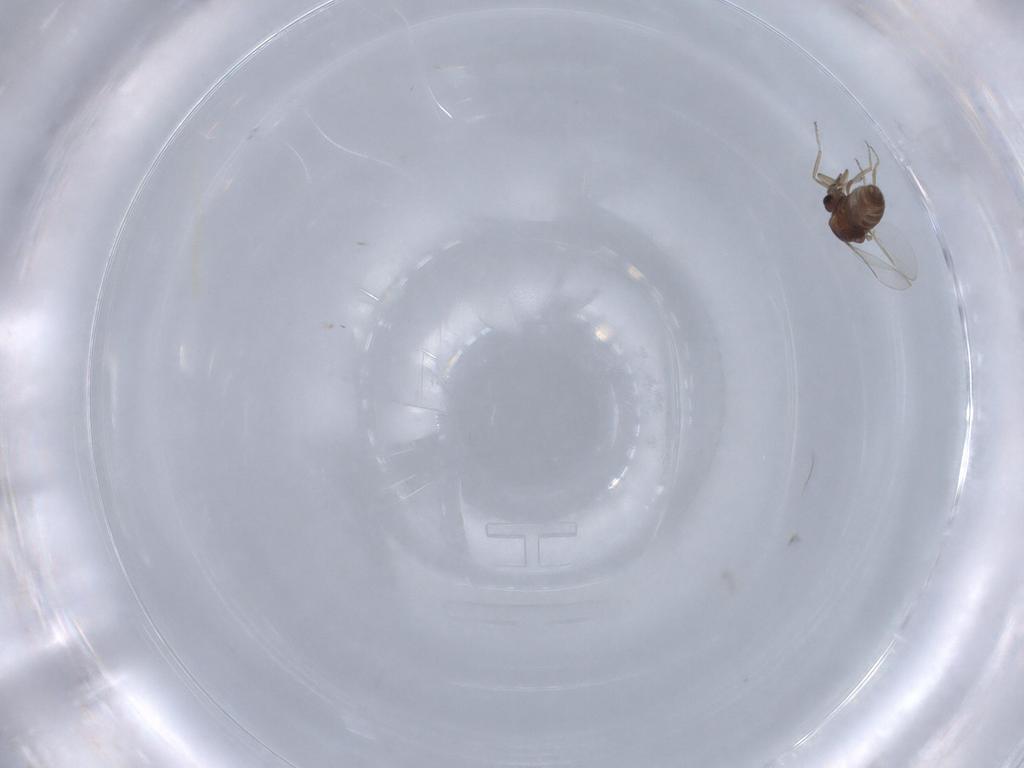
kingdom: Animalia
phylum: Arthropoda
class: Insecta
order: Diptera
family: Ceratopogonidae
